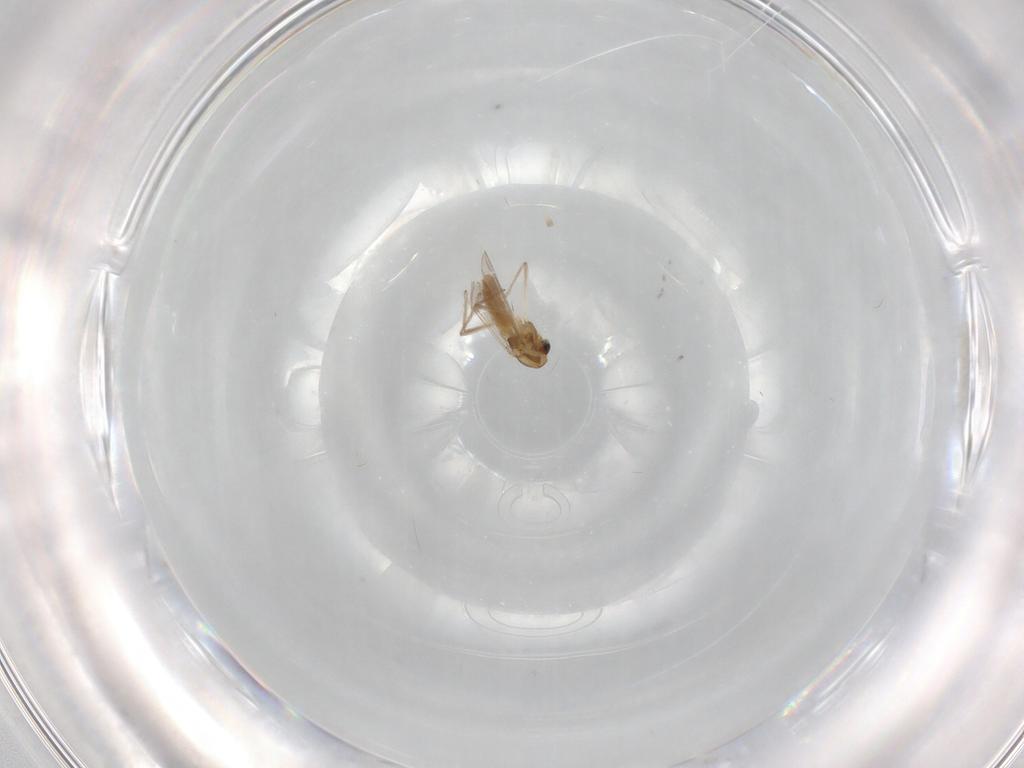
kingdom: Animalia
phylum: Arthropoda
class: Insecta
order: Diptera
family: Chironomidae
